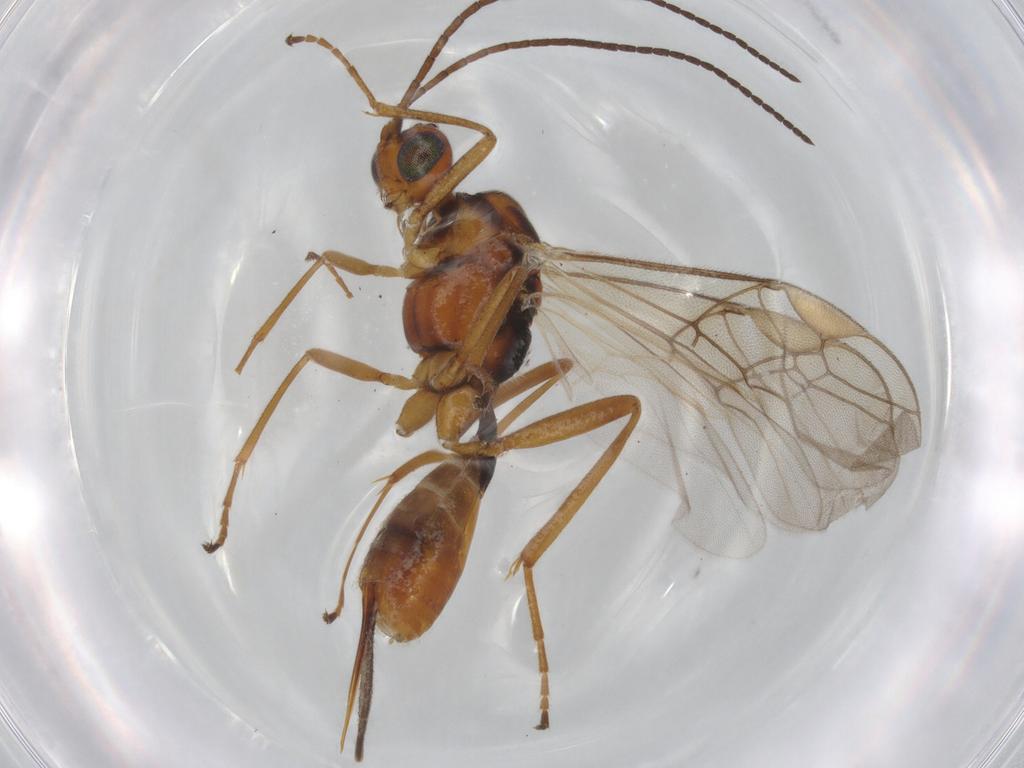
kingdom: Animalia
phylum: Arthropoda
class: Insecta
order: Hymenoptera
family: Braconidae
